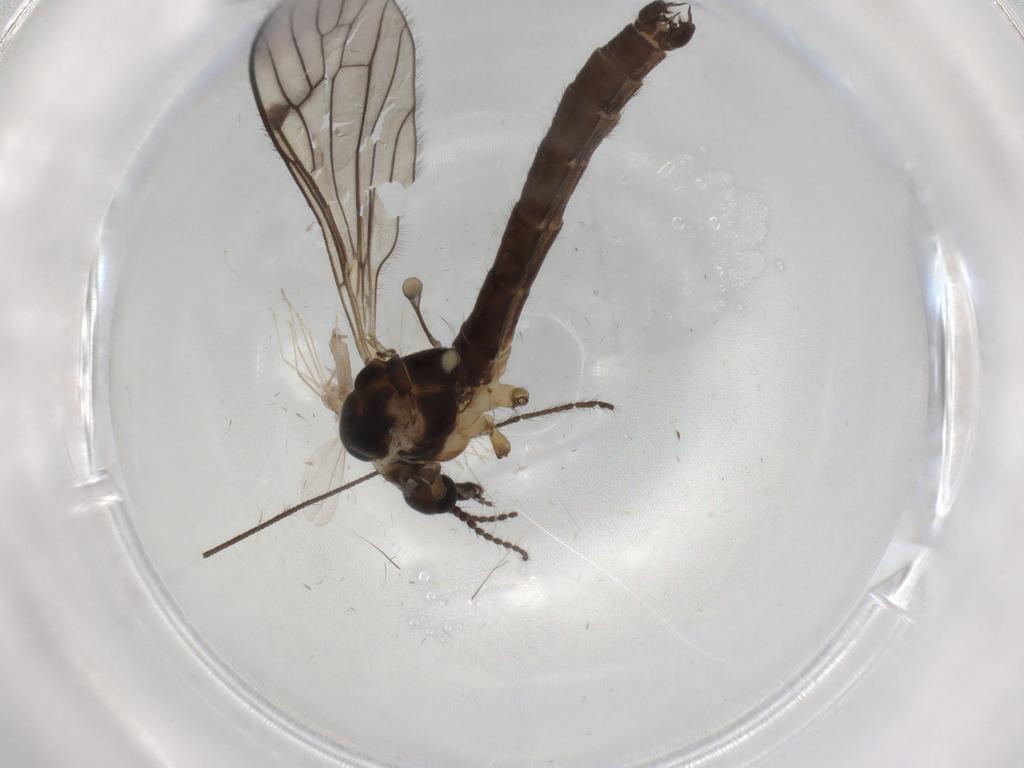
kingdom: Animalia
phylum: Arthropoda
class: Insecta
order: Diptera
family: Limoniidae
